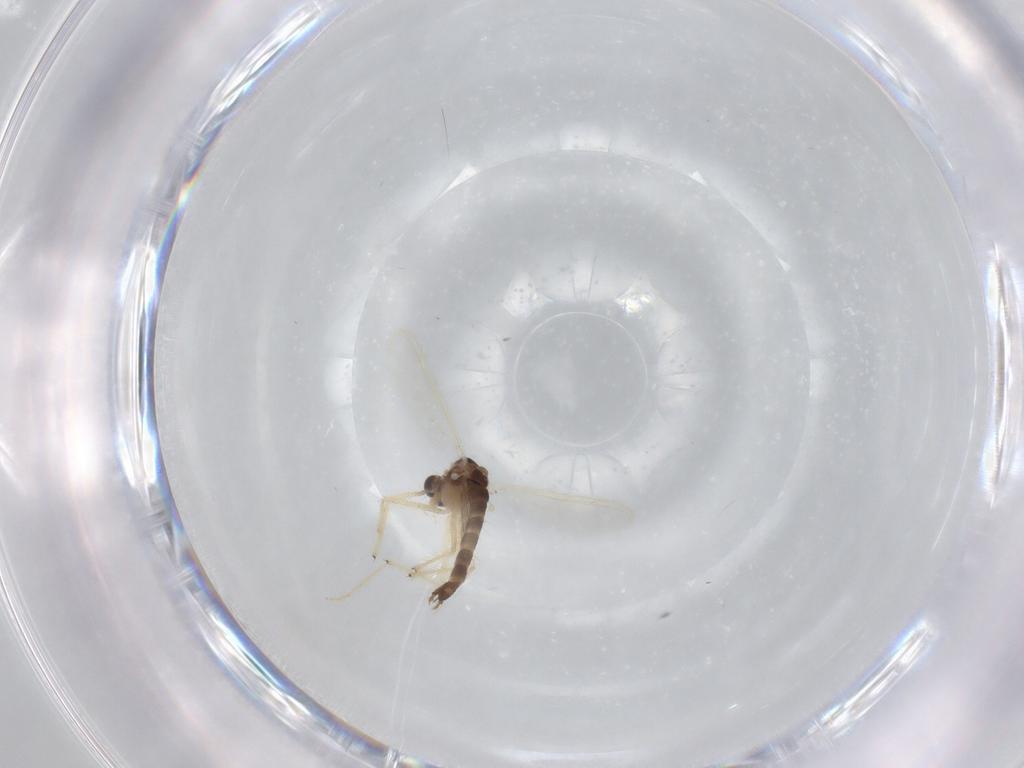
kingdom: Animalia
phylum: Arthropoda
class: Insecta
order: Diptera
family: Chironomidae
